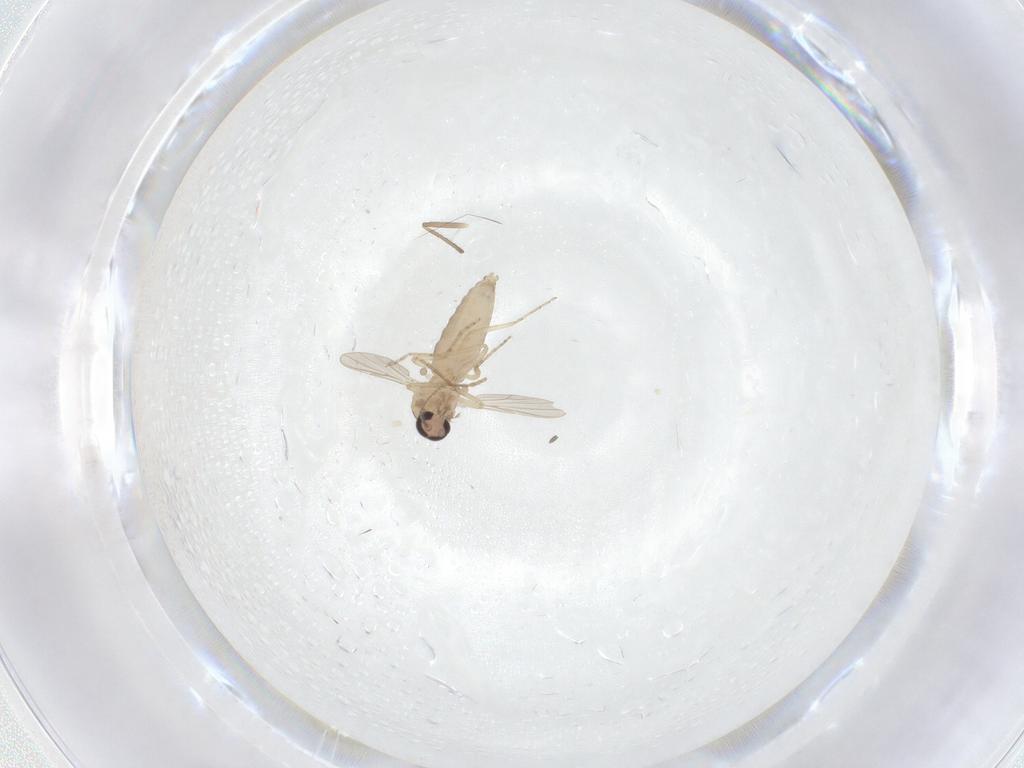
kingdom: Animalia
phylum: Arthropoda
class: Insecta
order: Diptera
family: Ceratopogonidae
